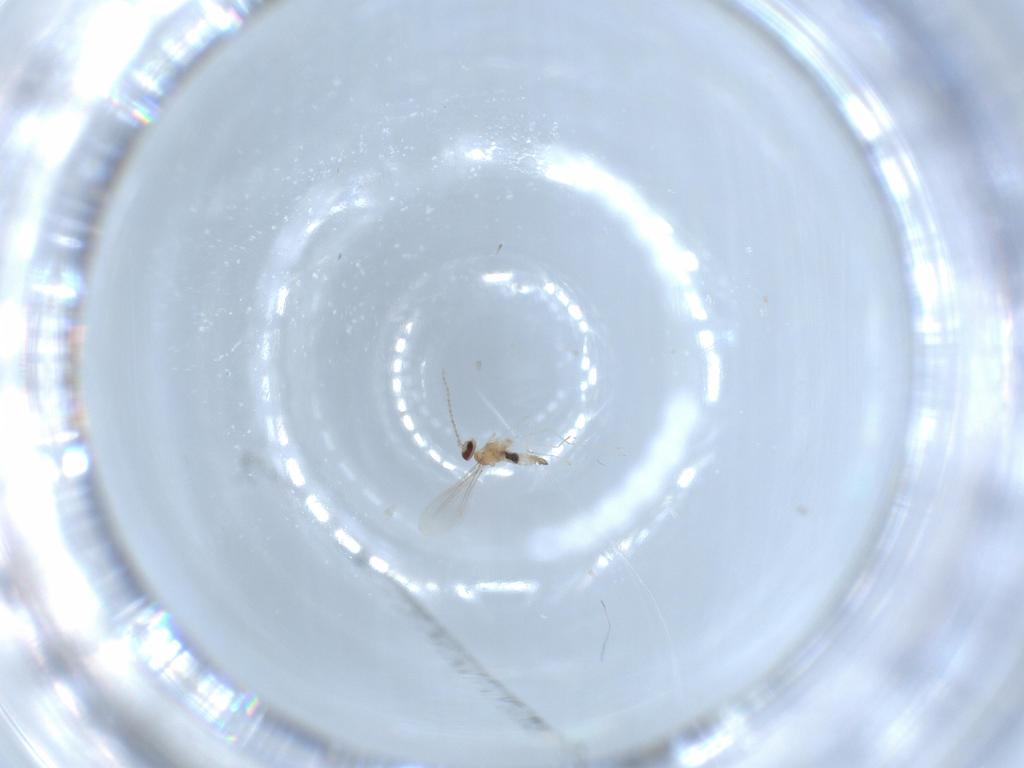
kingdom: Animalia
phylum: Arthropoda
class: Insecta
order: Diptera
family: Cecidomyiidae
